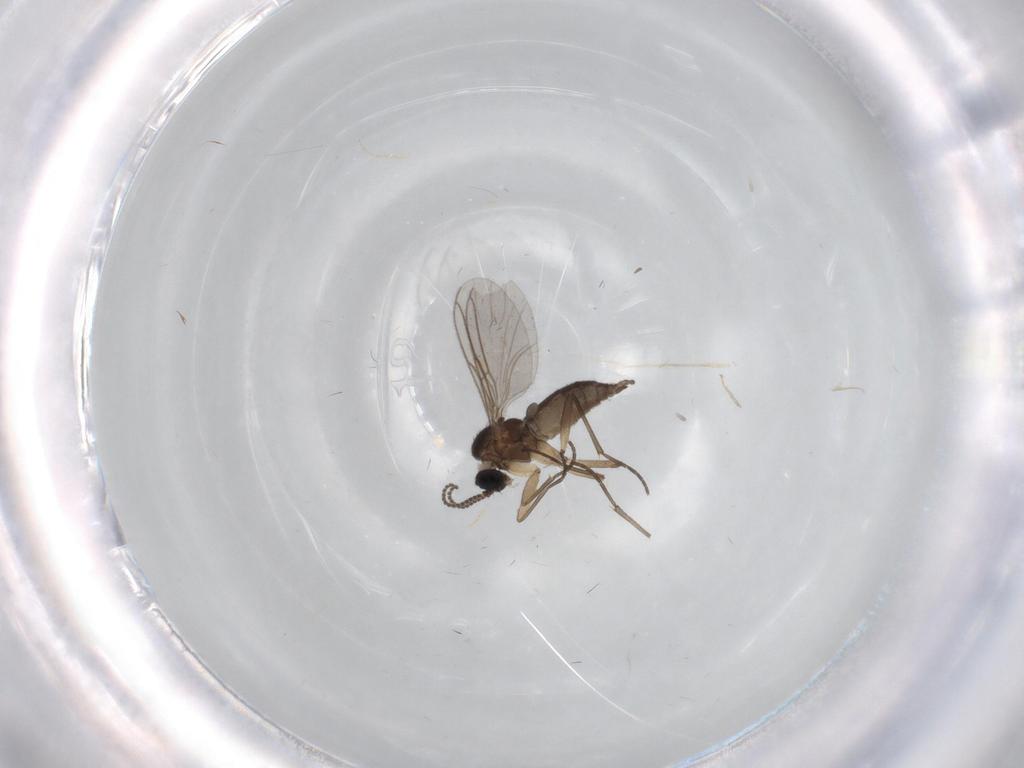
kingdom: Animalia
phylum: Arthropoda
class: Insecta
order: Diptera
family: Sciaridae
